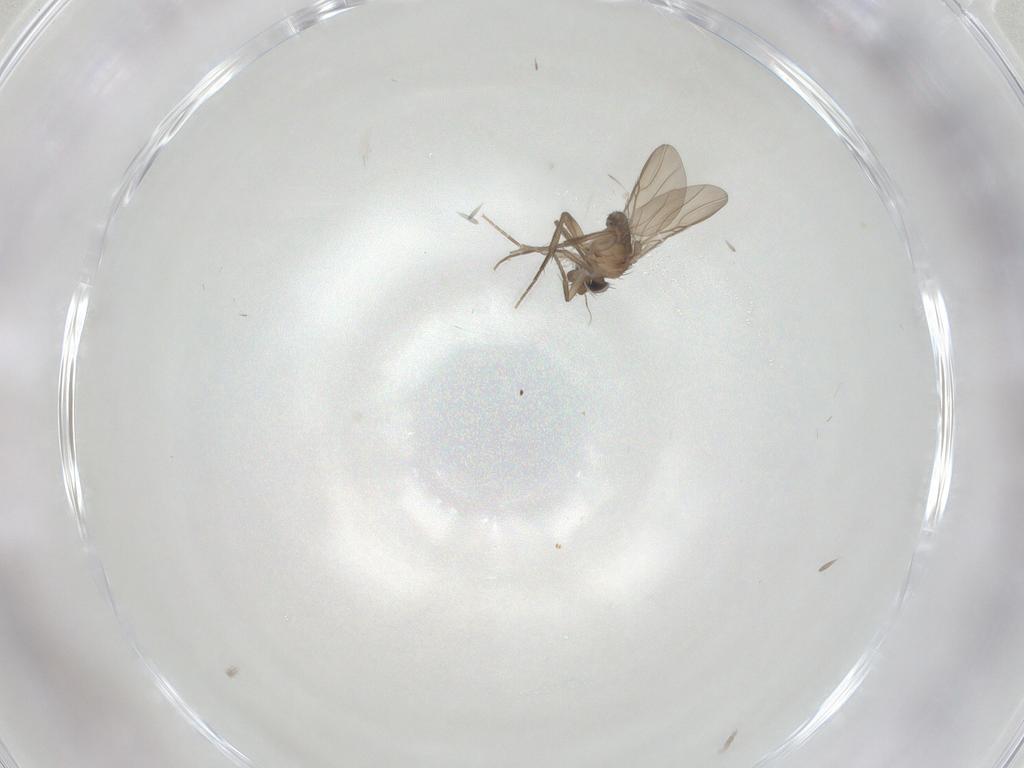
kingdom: Animalia
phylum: Arthropoda
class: Insecta
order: Diptera
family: Phoridae
